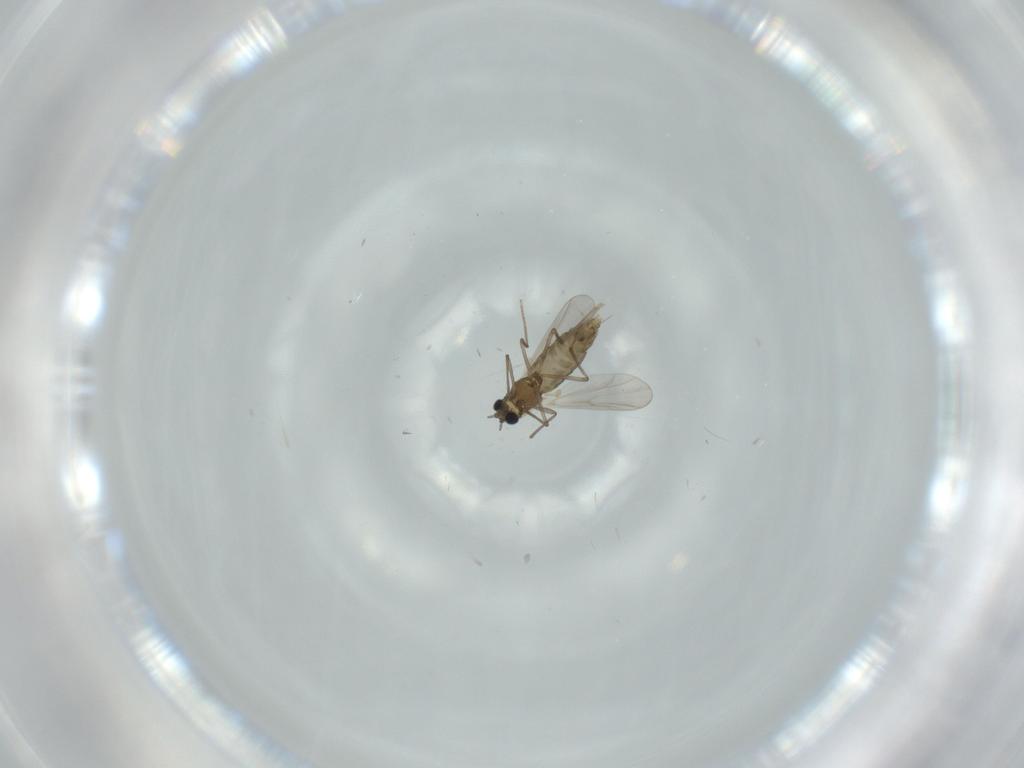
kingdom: Animalia
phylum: Arthropoda
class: Insecta
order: Diptera
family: Chironomidae
